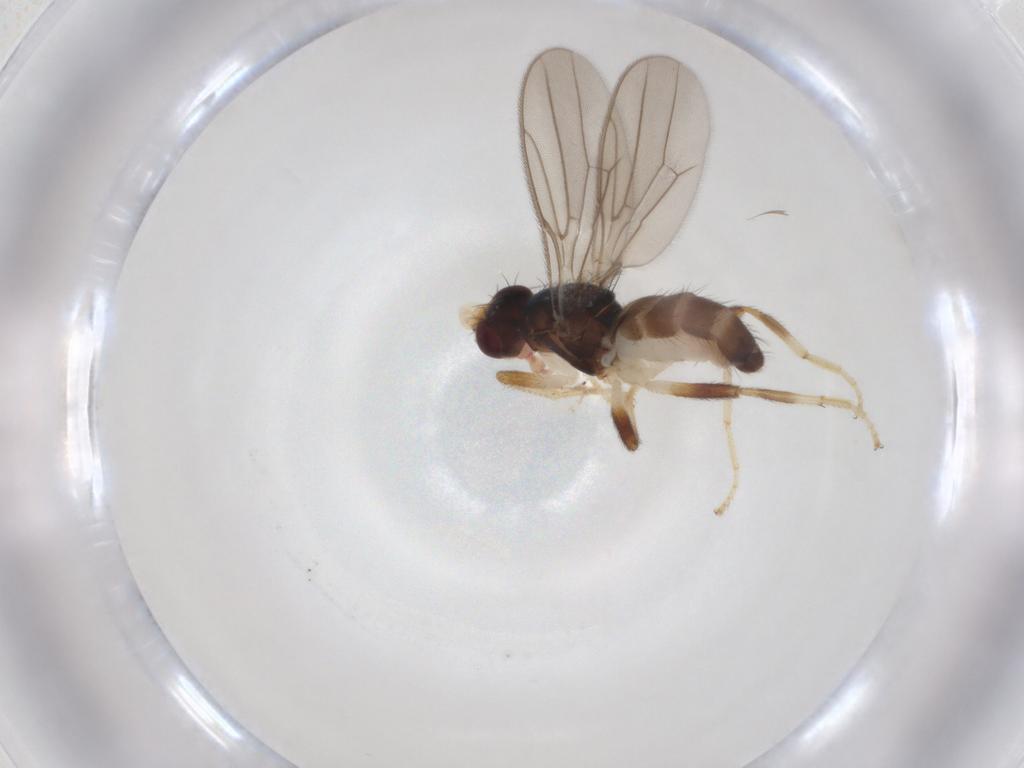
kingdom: Animalia
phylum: Arthropoda
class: Insecta
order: Diptera
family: Chloropidae
